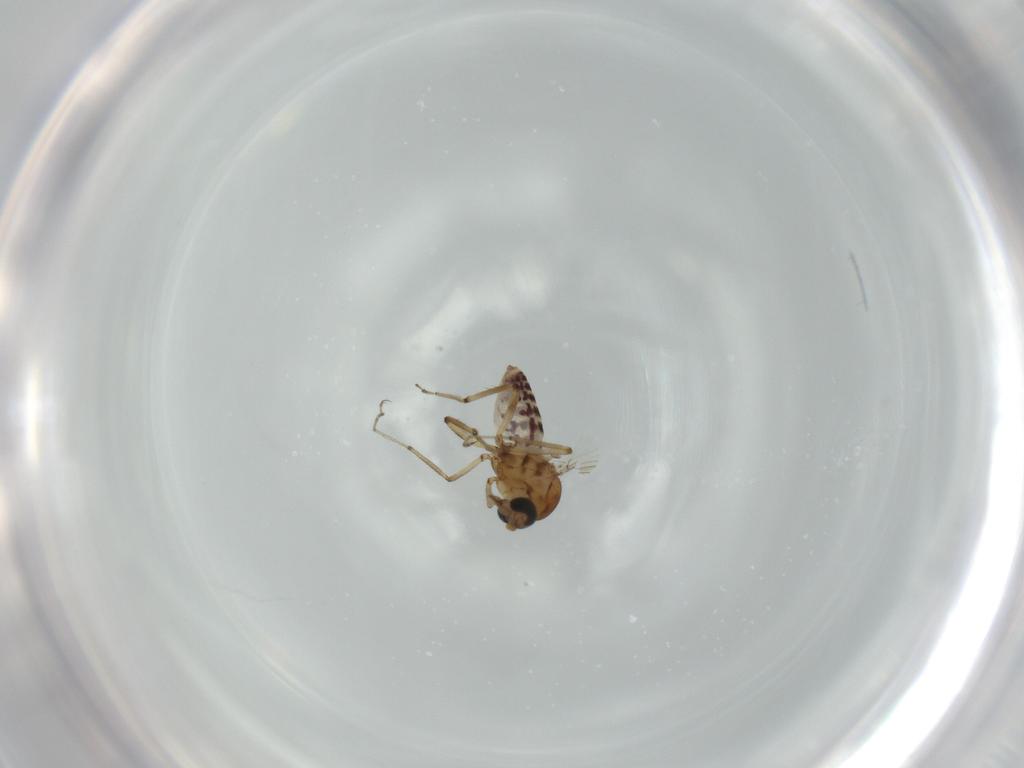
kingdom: Animalia
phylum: Arthropoda
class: Insecta
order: Diptera
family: Ceratopogonidae
